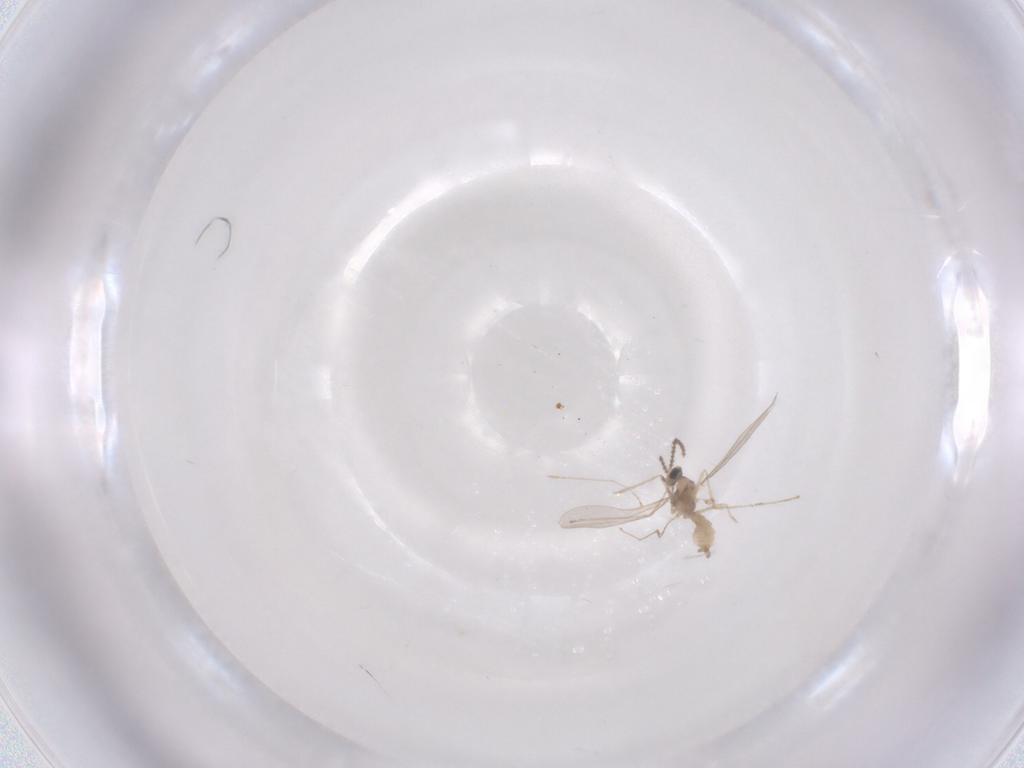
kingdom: Animalia
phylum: Arthropoda
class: Insecta
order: Diptera
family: Cecidomyiidae
